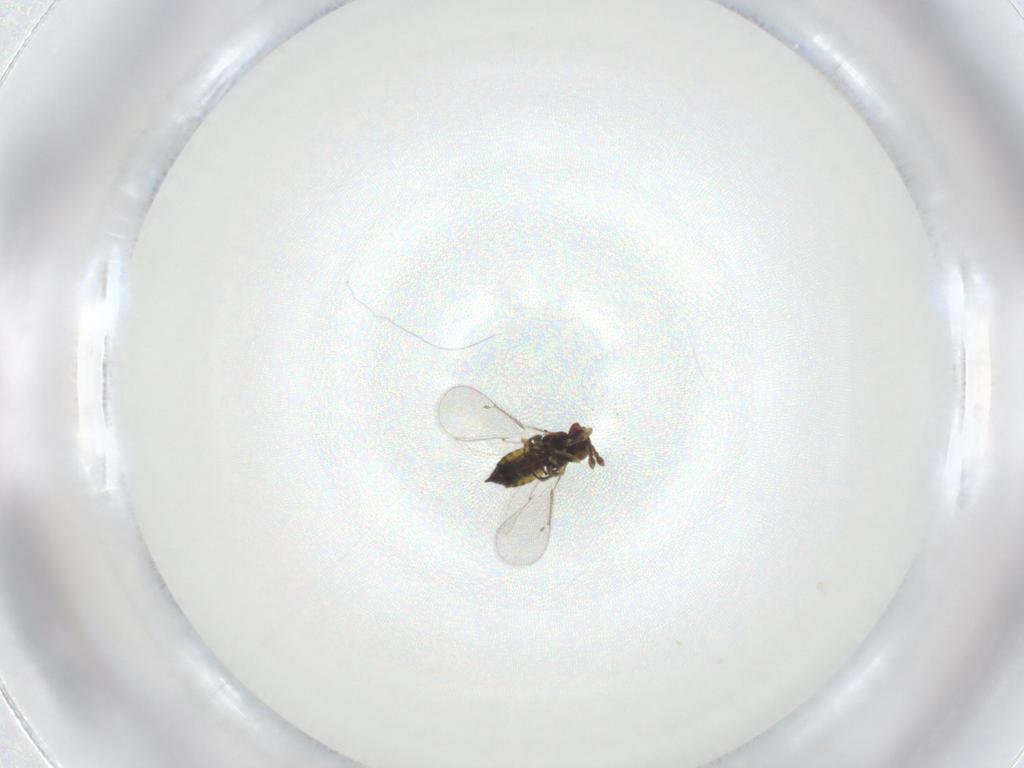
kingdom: Animalia
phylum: Arthropoda
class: Insecta
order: Hymenoptera
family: Eulophidae
